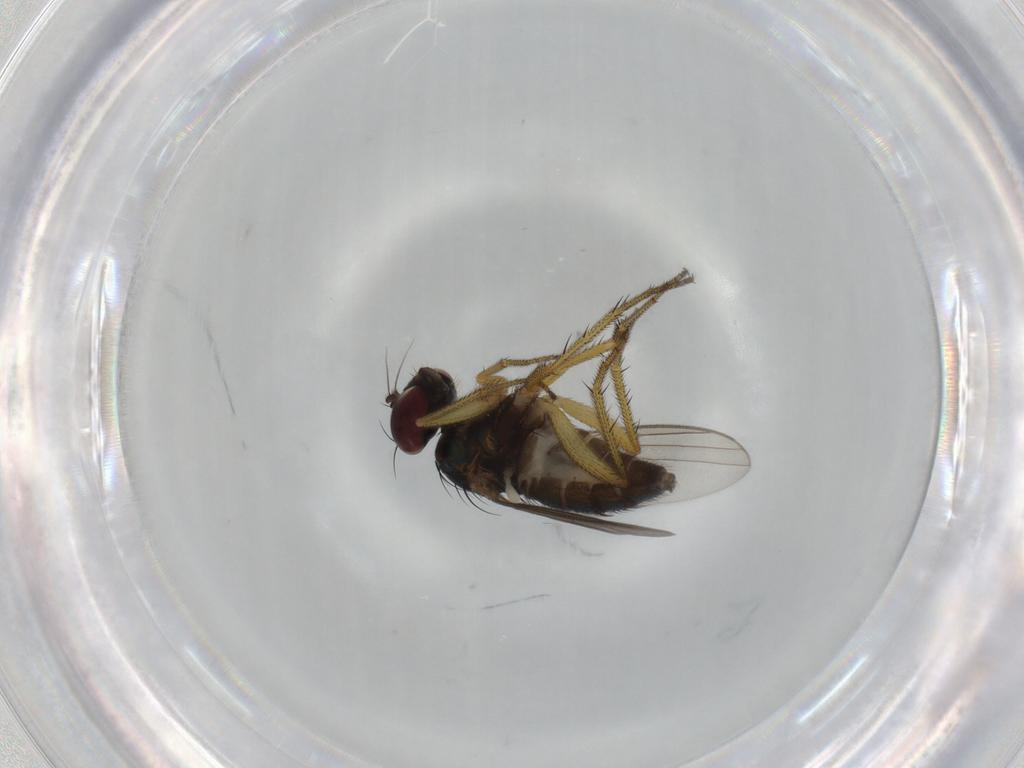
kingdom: Animalia
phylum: Arthropoda
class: Insecta
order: Diptera
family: Dolichopodidae
